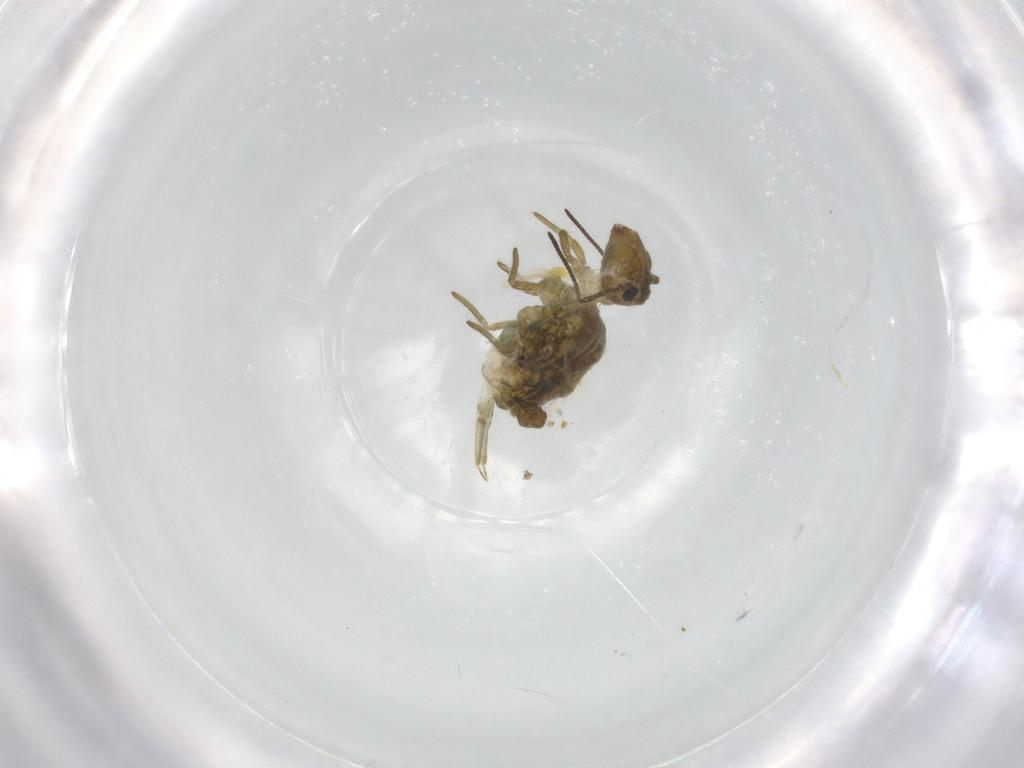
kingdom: Animalia
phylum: Arthropoda
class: Collembola
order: Symphypleona
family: Sminthuridae
